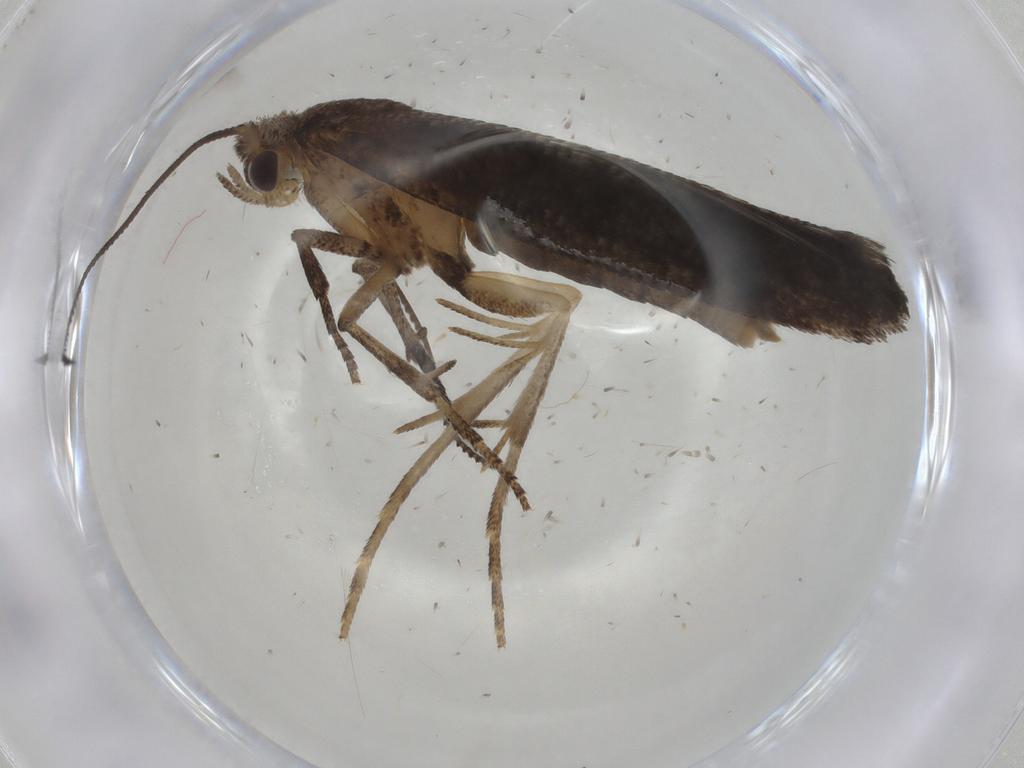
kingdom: Animalia
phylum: Arthropoda
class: Insecta
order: Lepidoptera
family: Plutellidae
